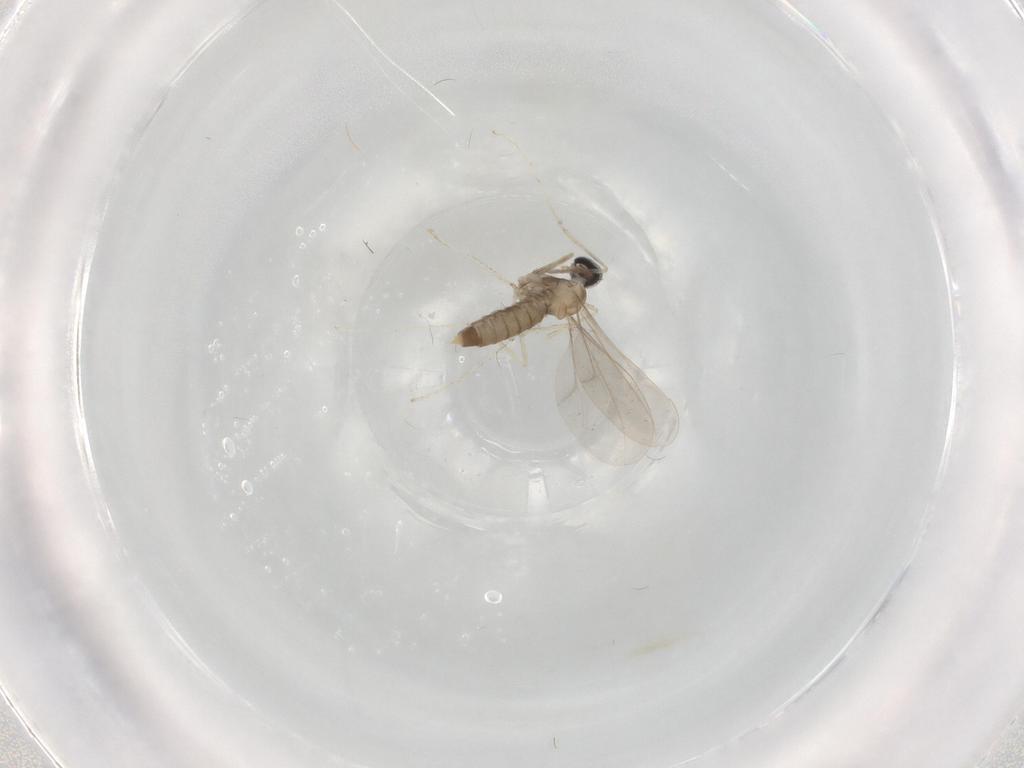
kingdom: Animalia
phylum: Arthropoda
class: Insecta
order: Diptera
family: Cecidomyiidae
